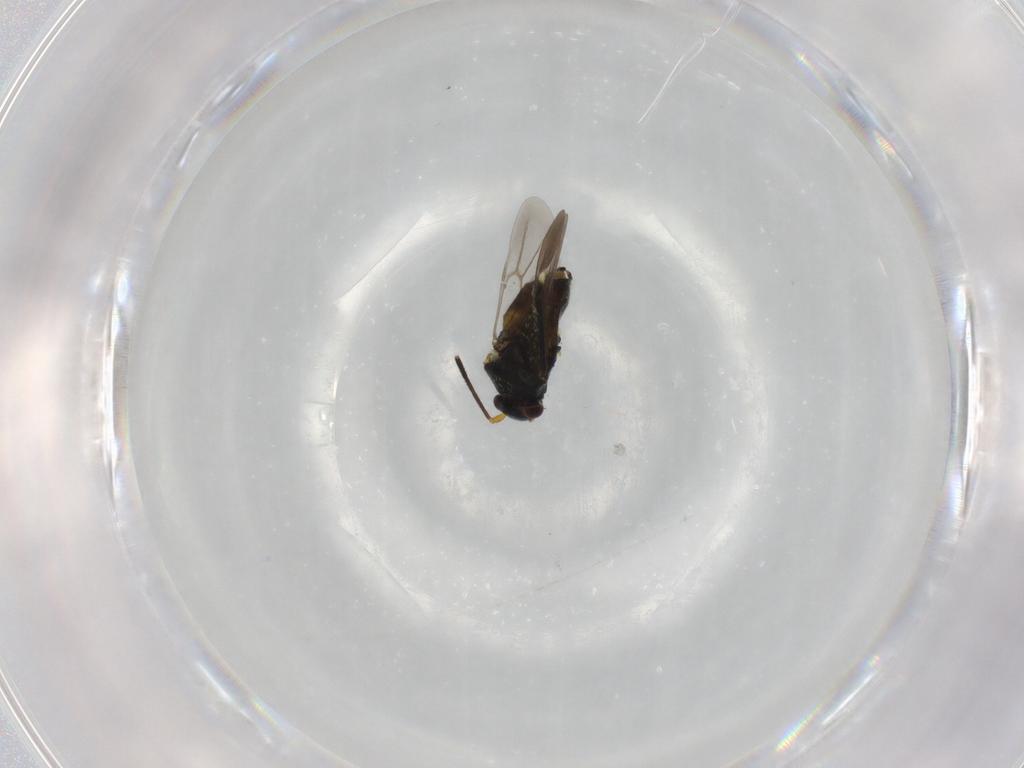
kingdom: Animalia
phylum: Arthropoda
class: Insecta
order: Hemiptera
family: Miridae
